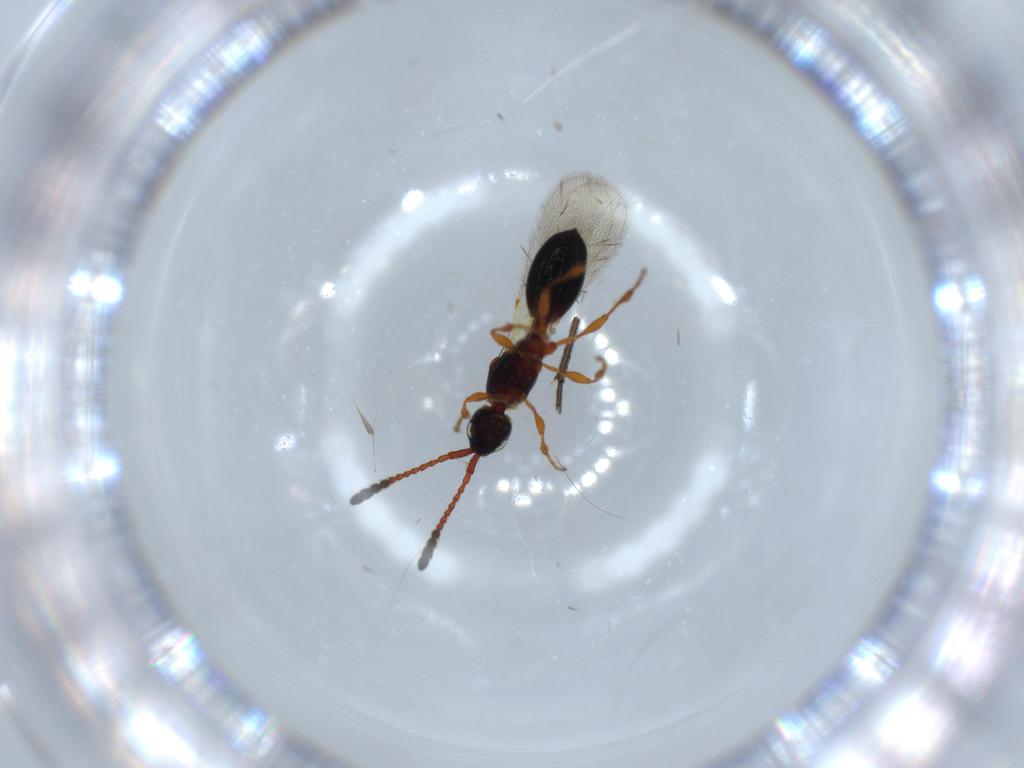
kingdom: Animalia
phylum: Arthropoda
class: Insecta
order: Hymenoptera
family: Diapriidae
